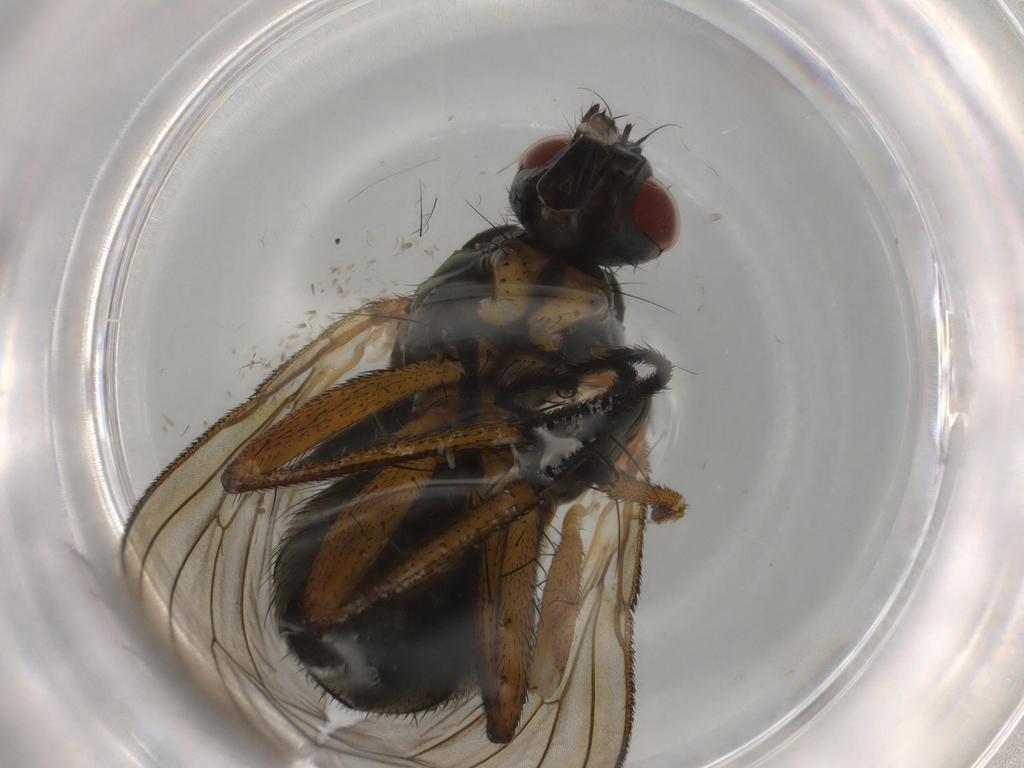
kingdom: Animalia
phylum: Arthropoda
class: Insecta
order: Diptera
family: Muscidae
